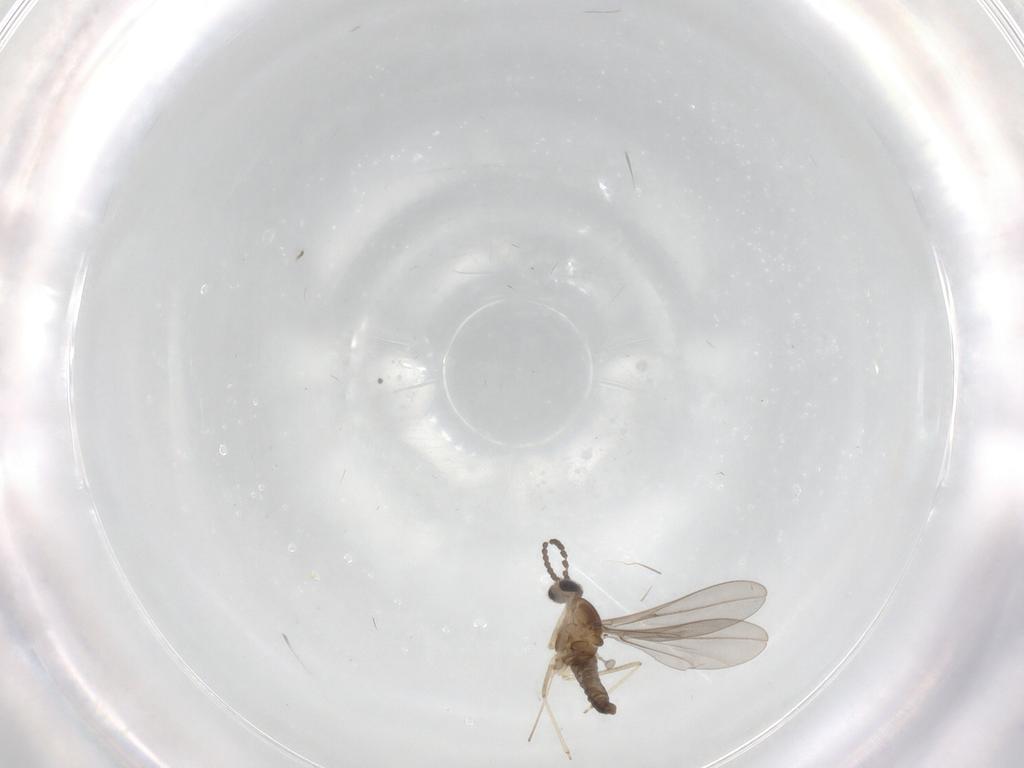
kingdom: Animalia
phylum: Arthropoda
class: Insecta
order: Diptera
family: Cecidomyiidae
